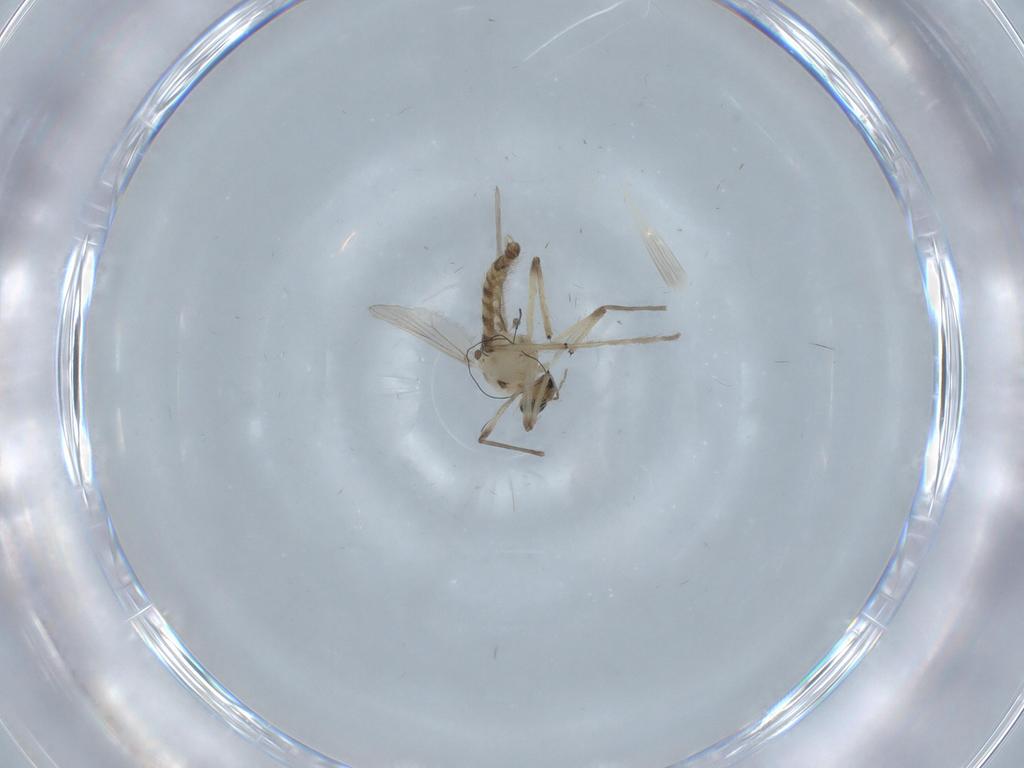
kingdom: Animalia
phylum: Arthropoda
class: Insecta
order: Diptera
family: Chironomidae
